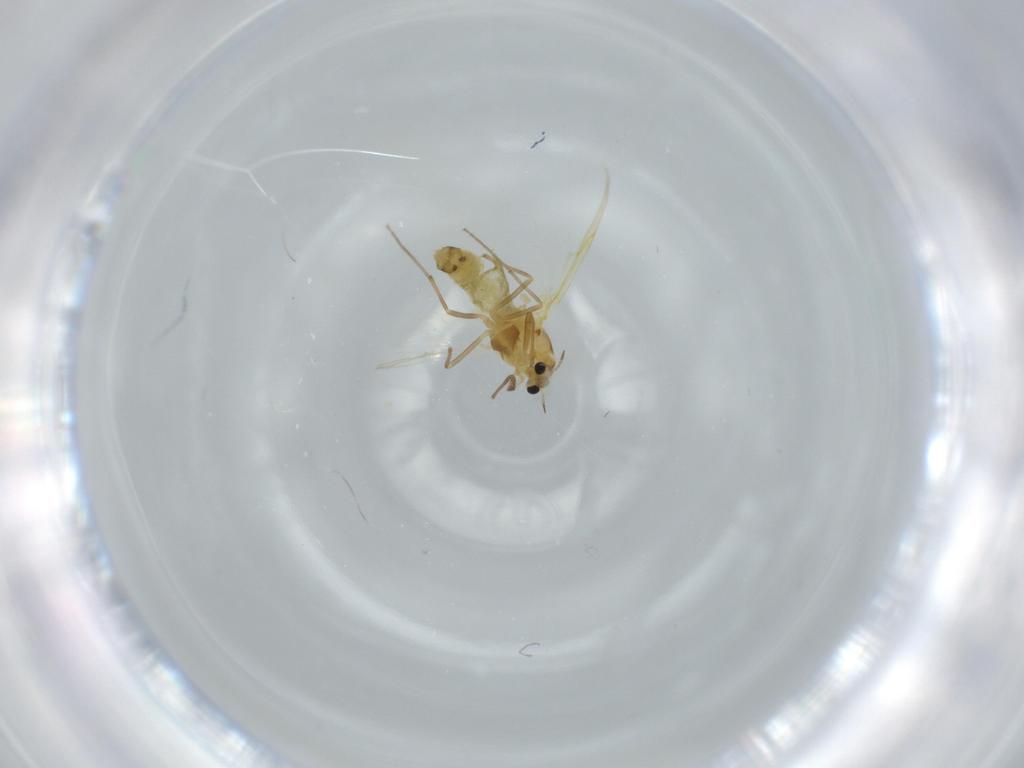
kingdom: Animalia
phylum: Arthropoda
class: Insecta
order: Diptera
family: Chironomidae
